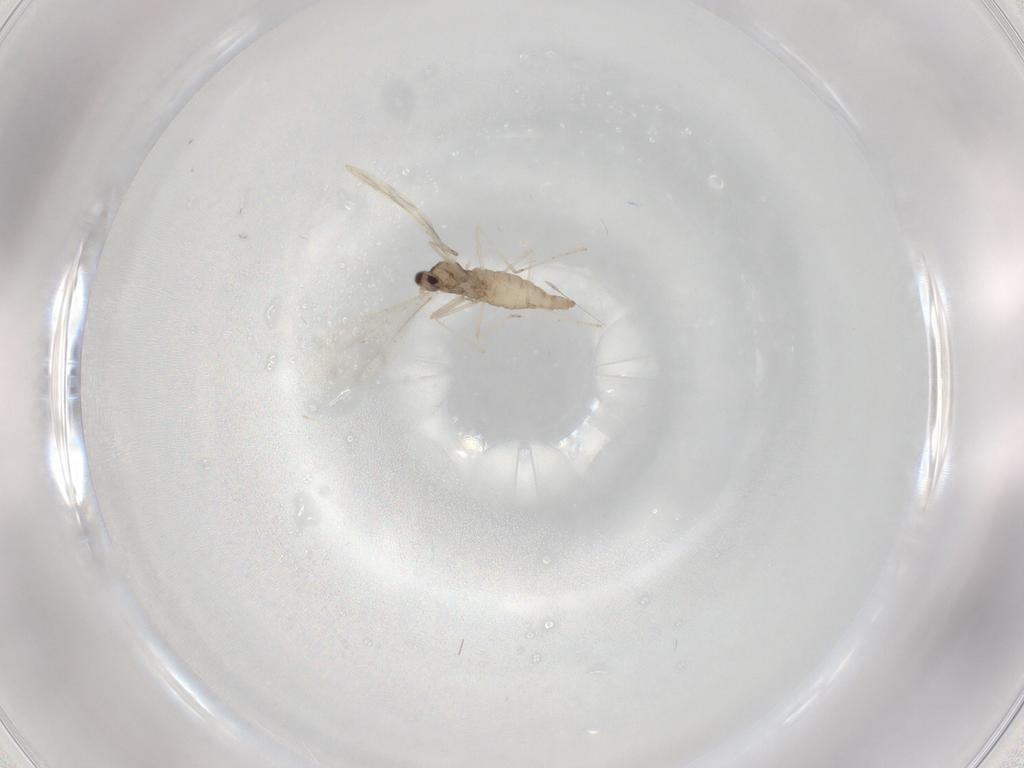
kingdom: Animalia
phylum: Arthropoda
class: Insecta
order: Diptera
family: Cecidomyiidae
